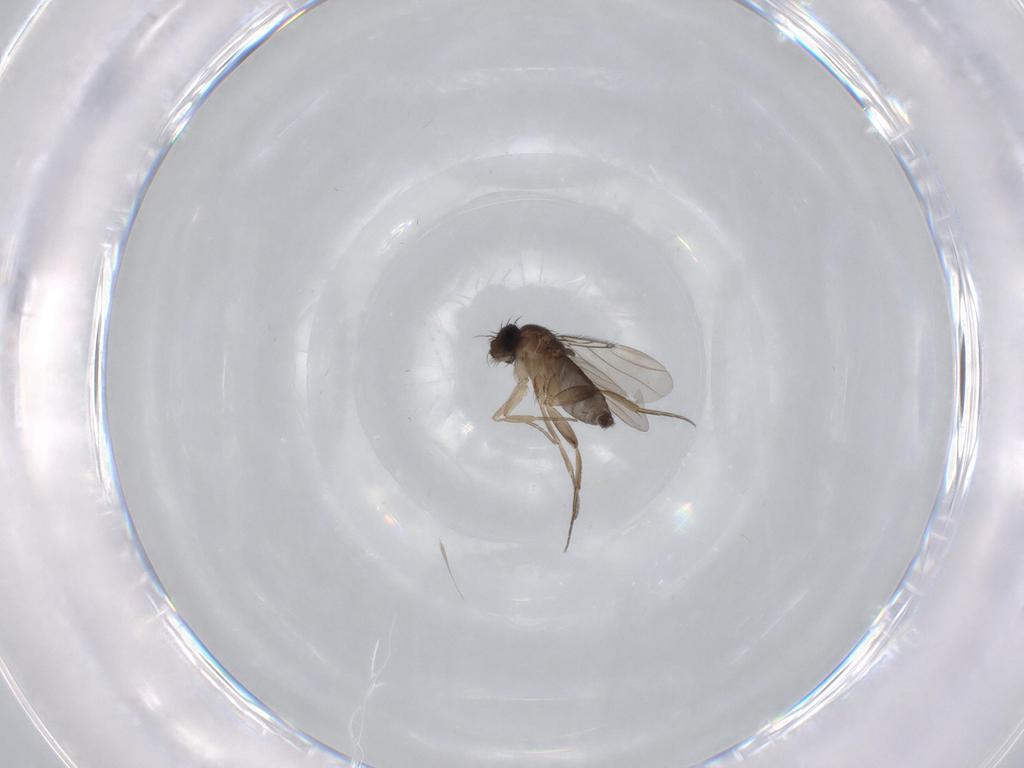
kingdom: Animalia
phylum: Arthropoda
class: Insecta
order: Diptera
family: Phoridae
